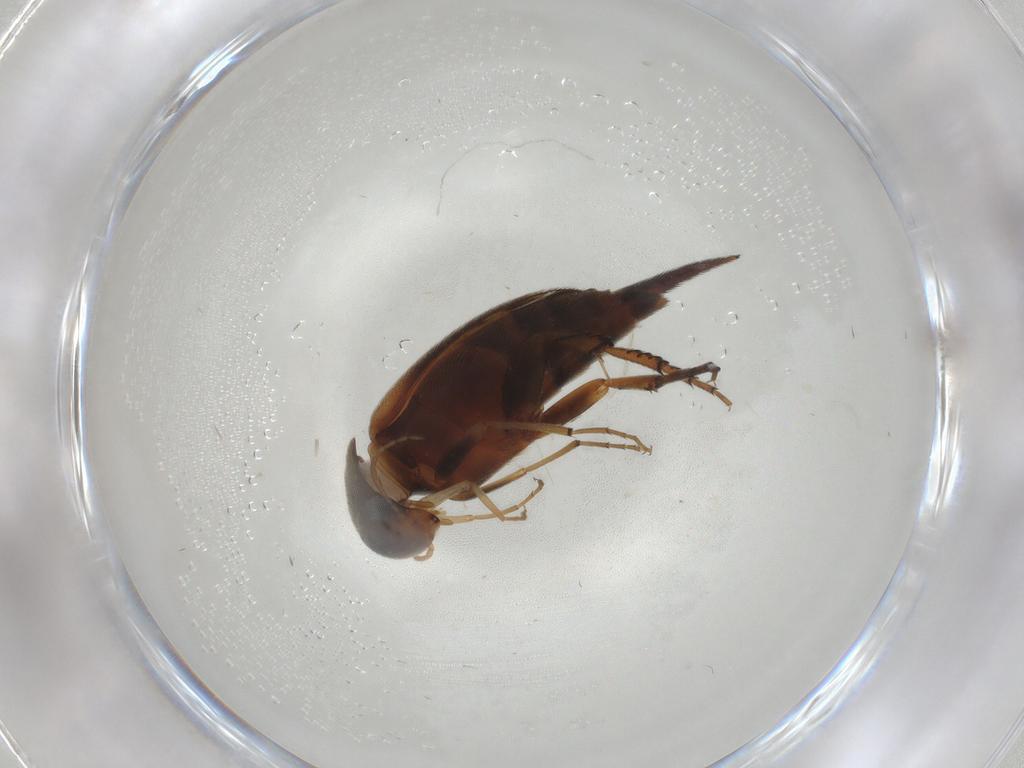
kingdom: Animalia
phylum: Arthropoda
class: Insecta
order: Coleoptera
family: Mordellidae
